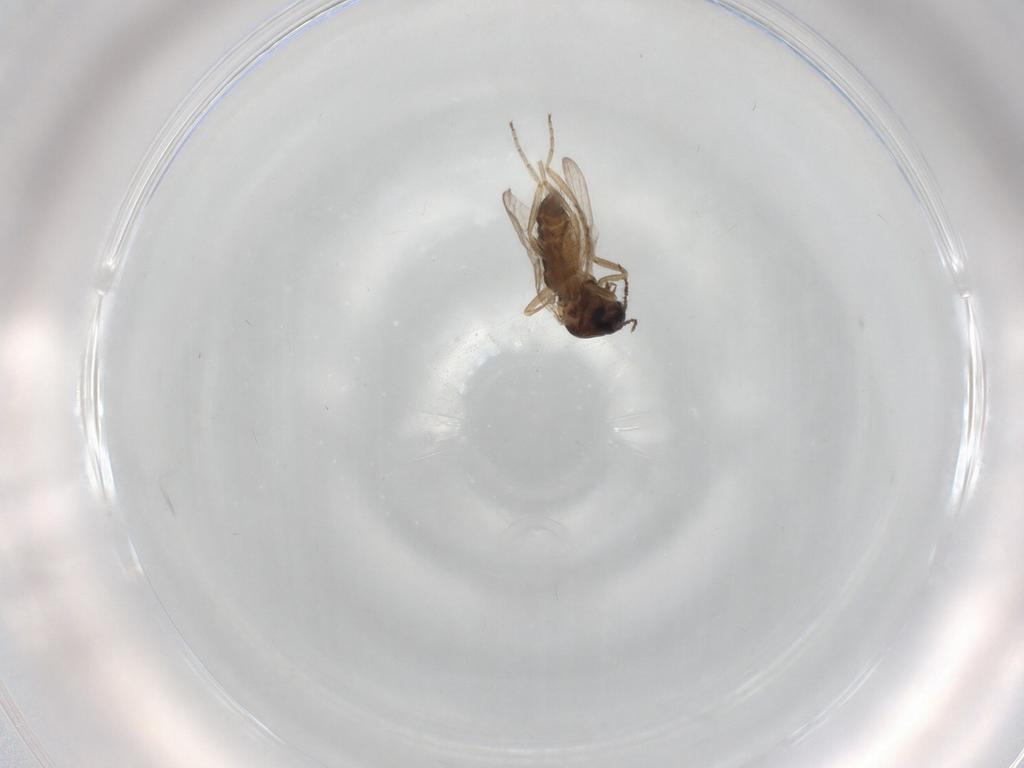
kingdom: Animalia
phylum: Arthropoda
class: Insecta
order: Diptera
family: Ceratopogonidae
